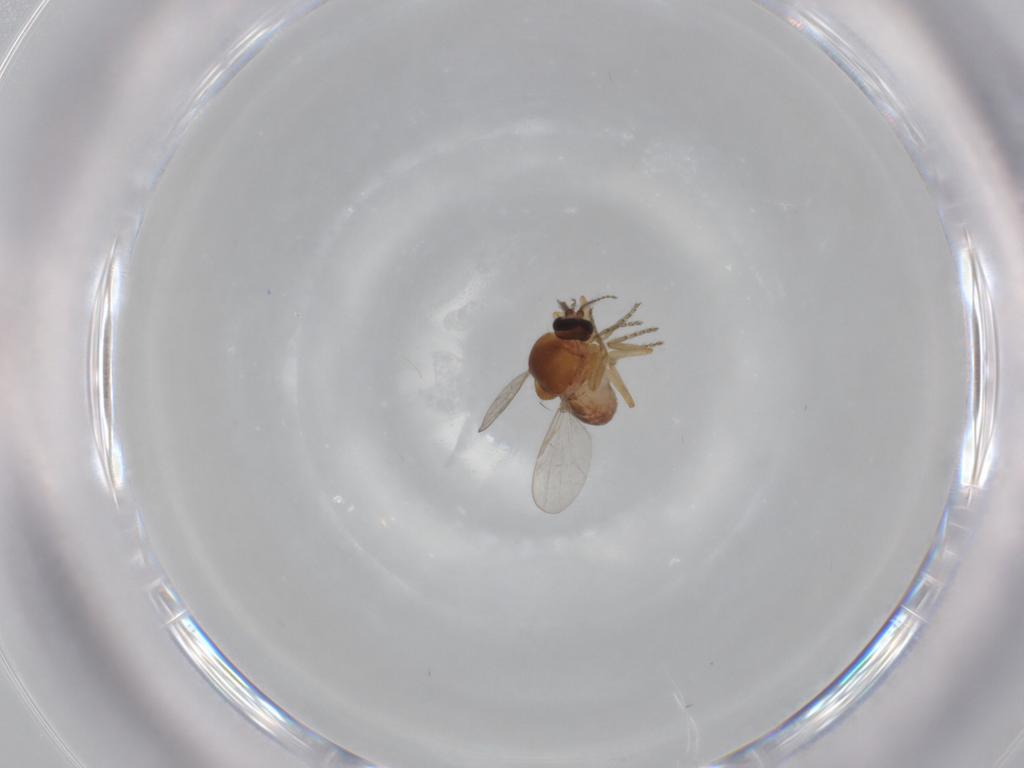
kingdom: Animalia
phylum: Arthropoda
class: Insecta
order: Diptera
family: Ceratopogonidae
